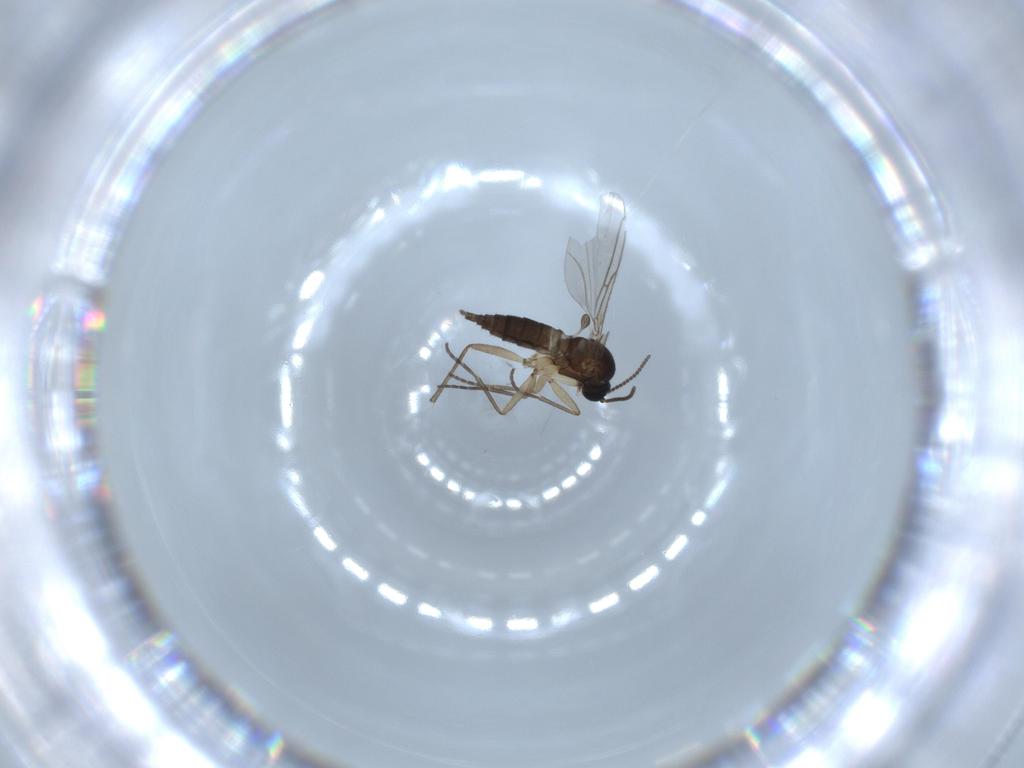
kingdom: Animalia
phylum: Arthropoda
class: Insecta
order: Diptera
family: Sciaridae
